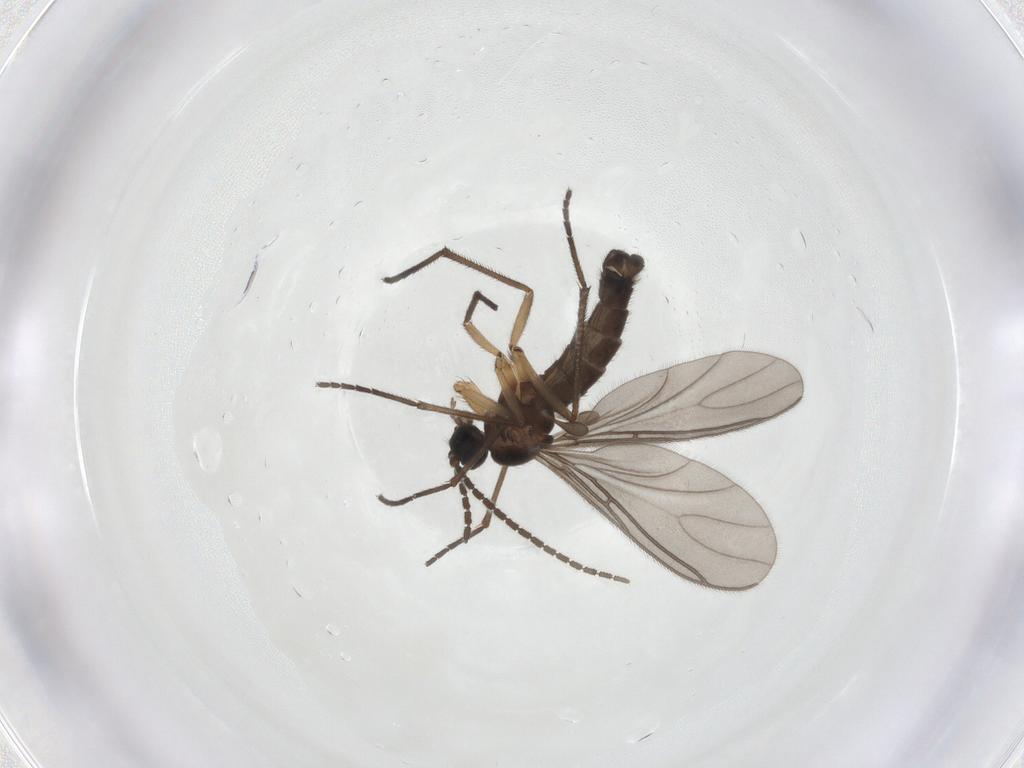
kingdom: Animalia
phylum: Arthropoda
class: Insecta
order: Diptera
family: Sciaridae
